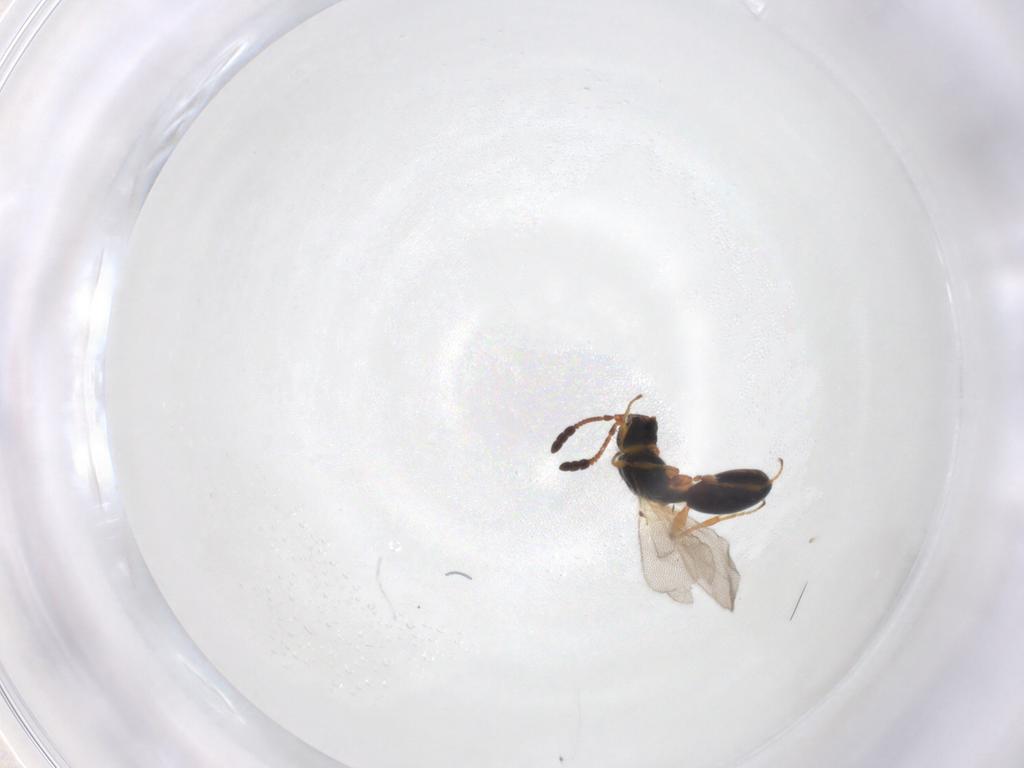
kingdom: Animalia
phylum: Arthropoda
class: Insecta
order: Hymenoptera
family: Diapriidae
